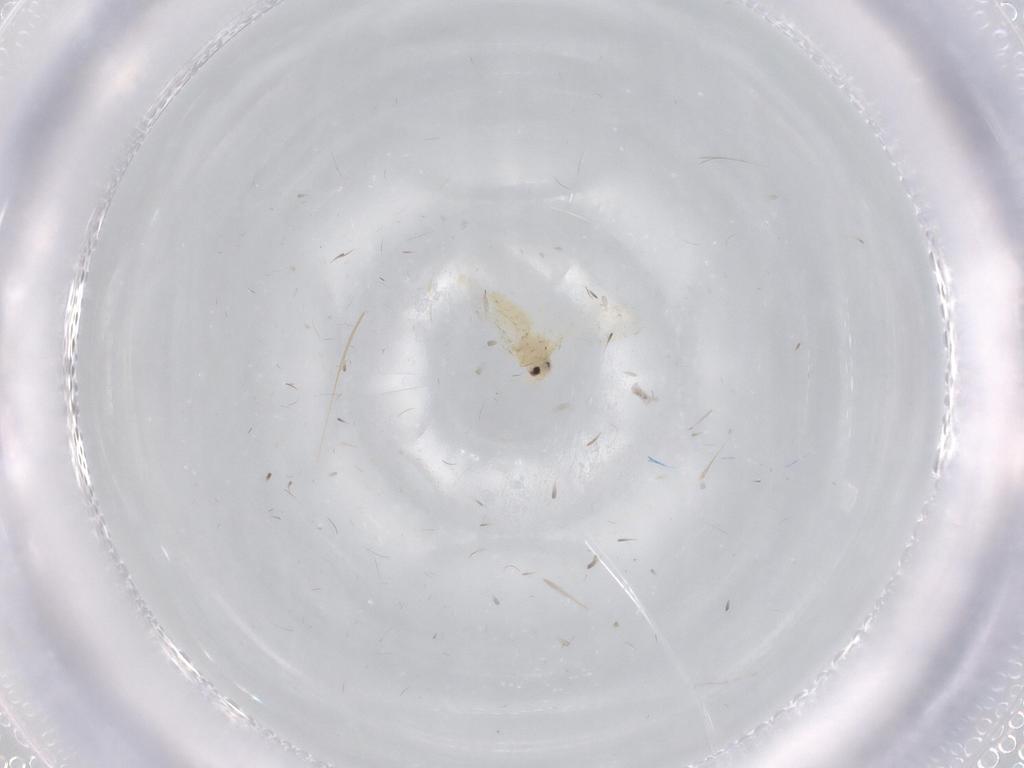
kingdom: Animalia
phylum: Arthropoda
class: Insecta
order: Hemiptera
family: Aleyrodidae
